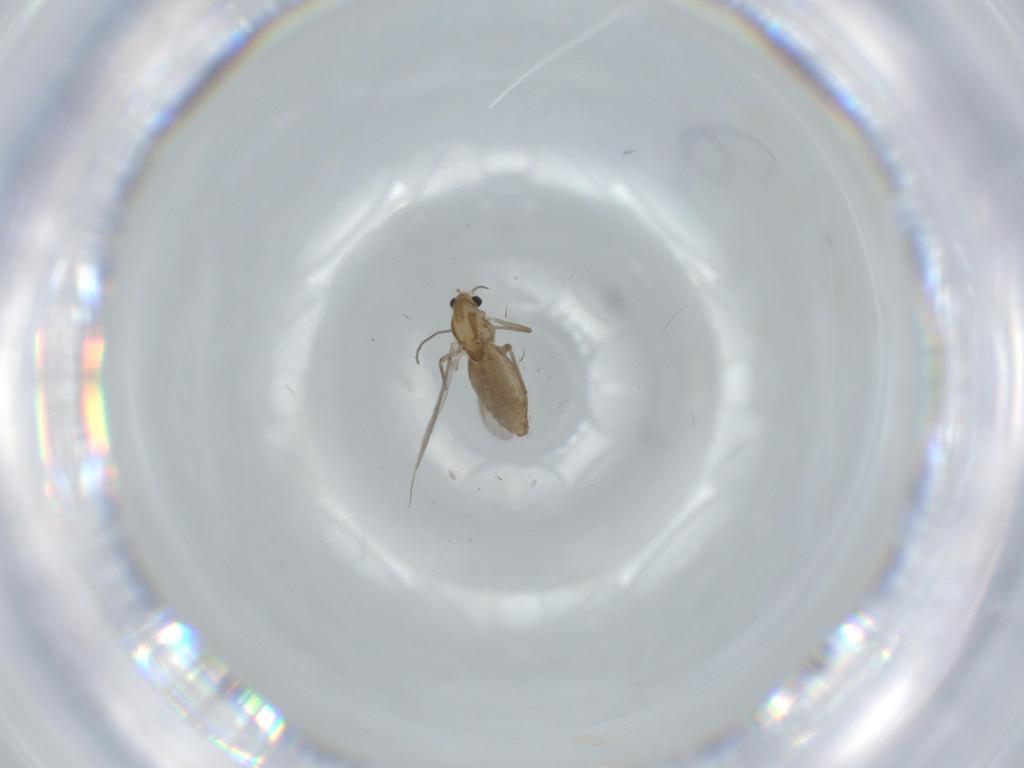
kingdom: Animalia
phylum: Arthropoda
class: Insecta
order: Diptera
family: Chironomidae
